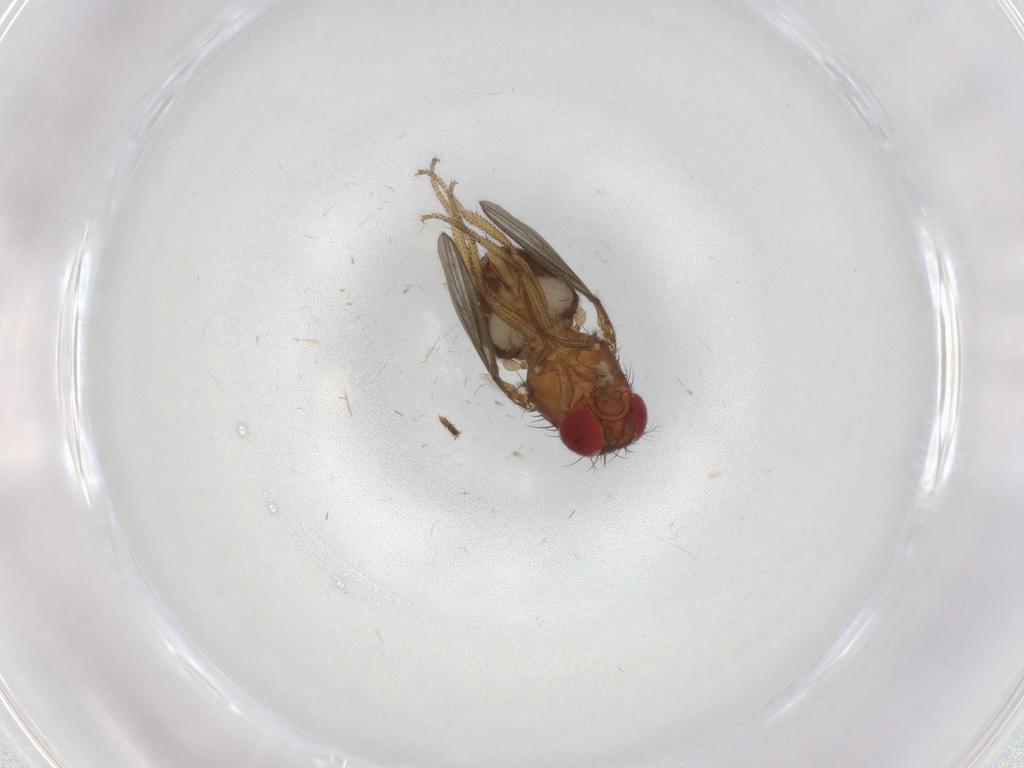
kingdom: Animalia
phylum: Arthropoda
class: Insecta
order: Diptera
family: Drosophilidae
